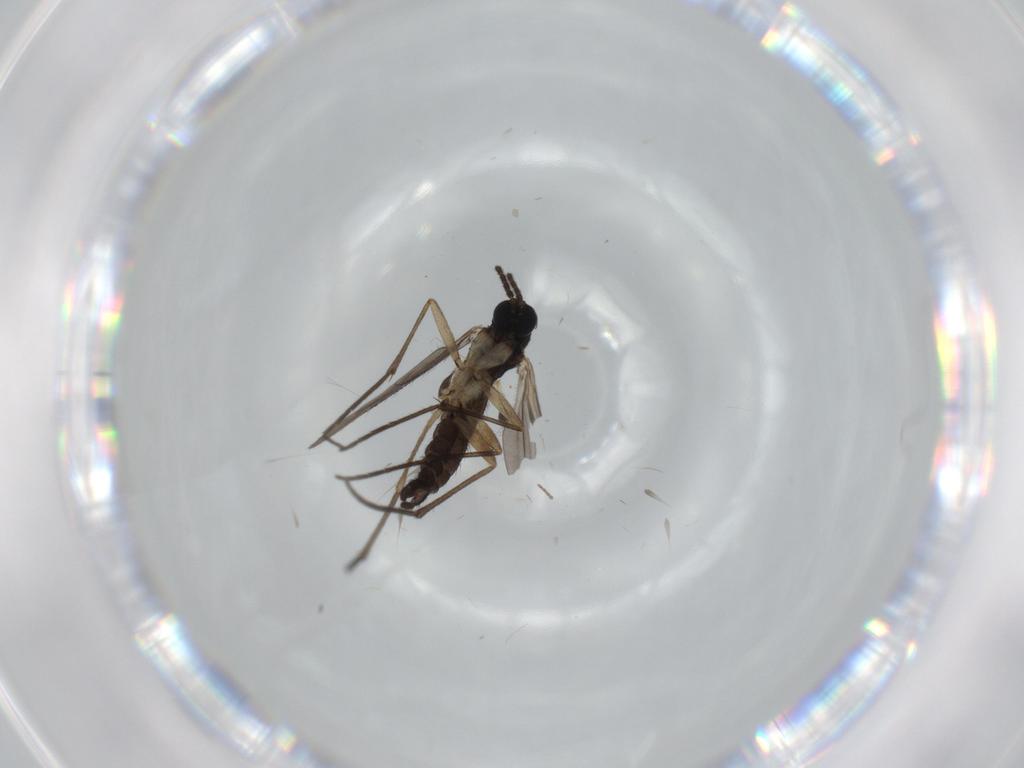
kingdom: Animalia
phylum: Arthropoda
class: Insecta
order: Diptera
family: Sciaridae
